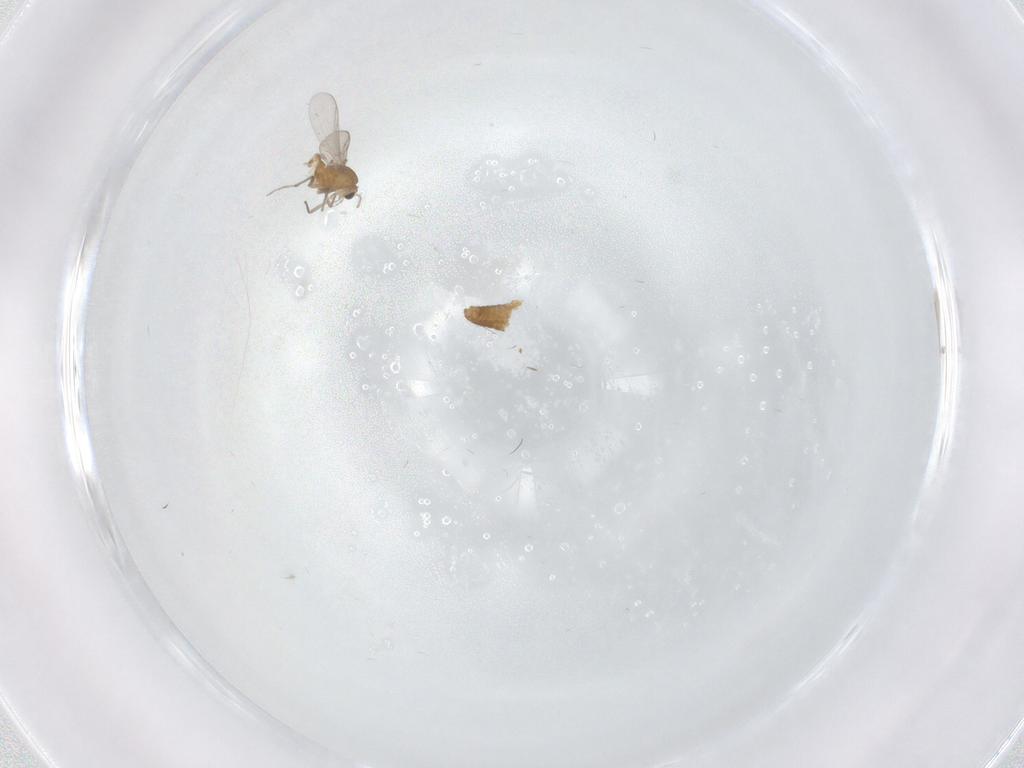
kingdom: Animalia
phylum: Arthropoda
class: Insecta
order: Diptera
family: Chironomidae
